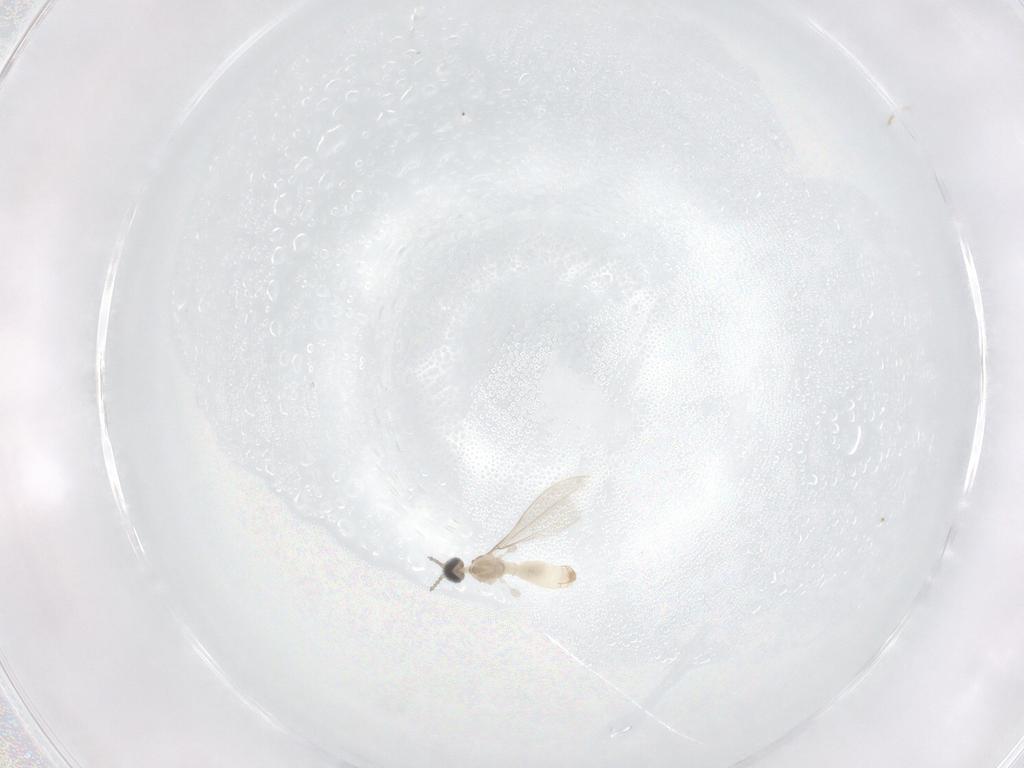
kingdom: Animalia
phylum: Arthropoda
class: Insecta
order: Diptera
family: Cecidomyiidae
